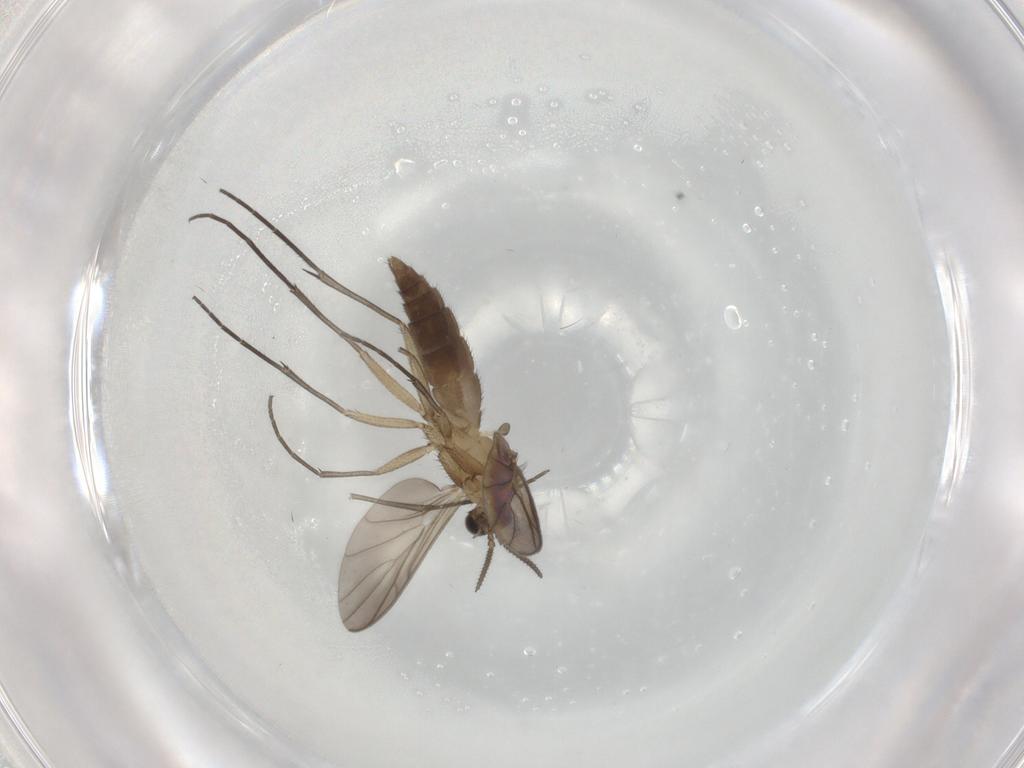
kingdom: Animalia
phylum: Arthropoda
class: Insecta
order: Diptera
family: Keroplatidae
